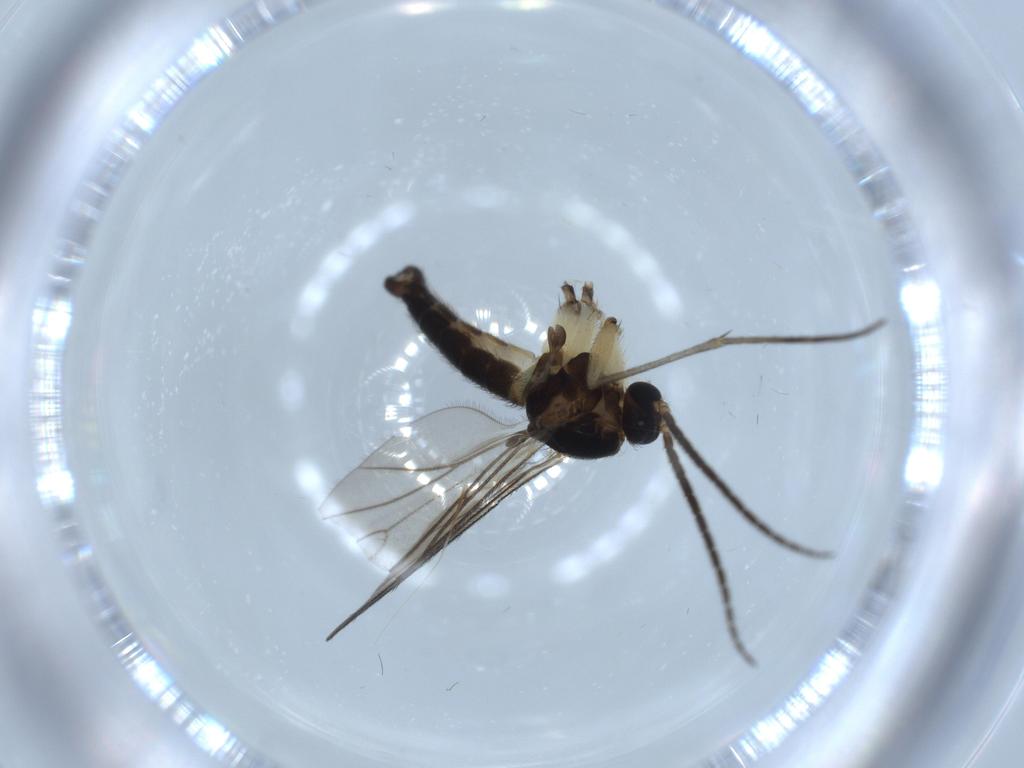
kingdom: Animalia
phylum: Arthropoda
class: Insecta
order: Diptera
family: Sciaridae
